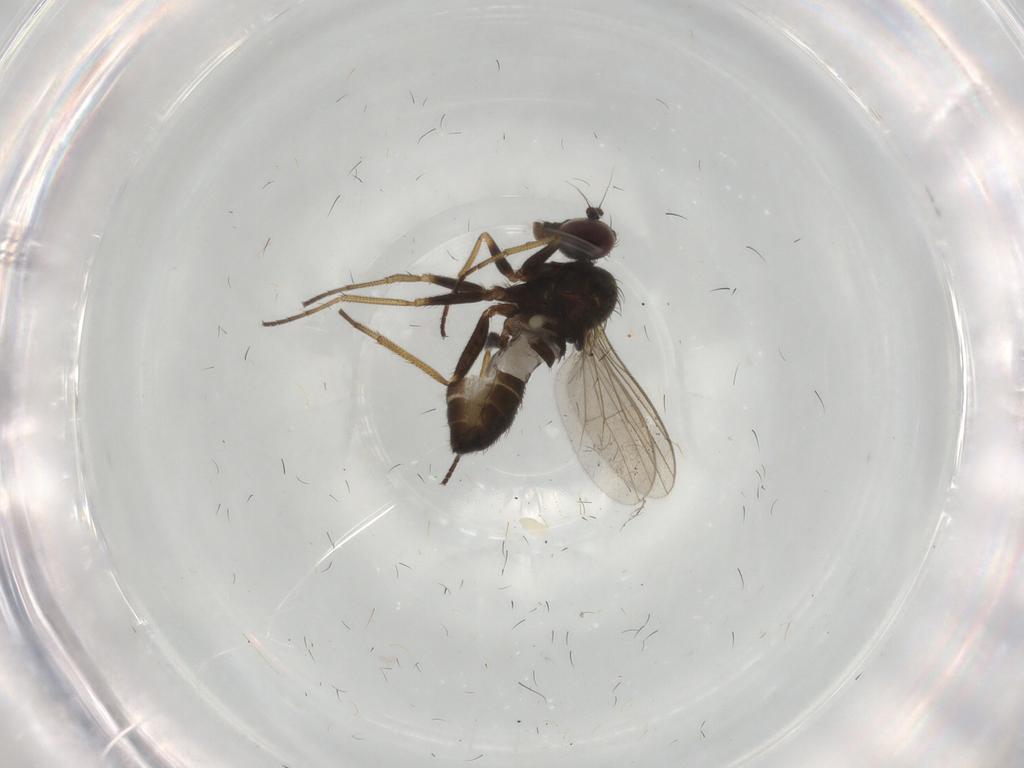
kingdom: Animalia
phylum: Arthropoda
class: Insecta
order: Diptera
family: Dolichopodidae
